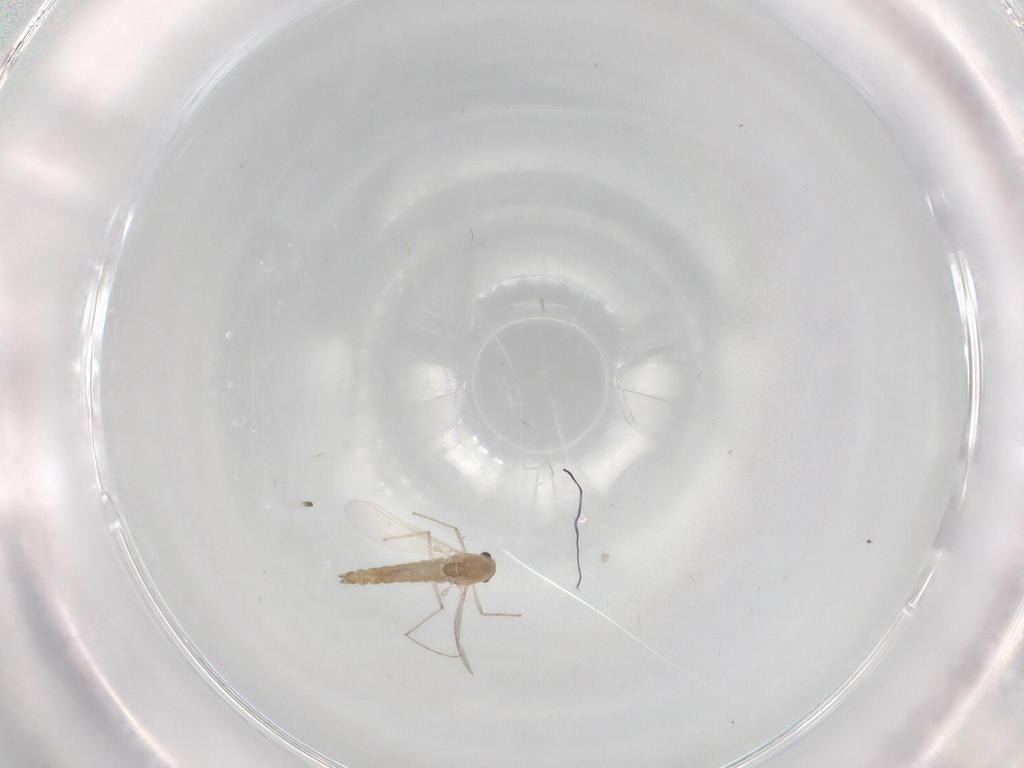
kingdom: Animalia
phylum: Arthropoda
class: Insecta
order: Diptera
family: Mycetophilidae
